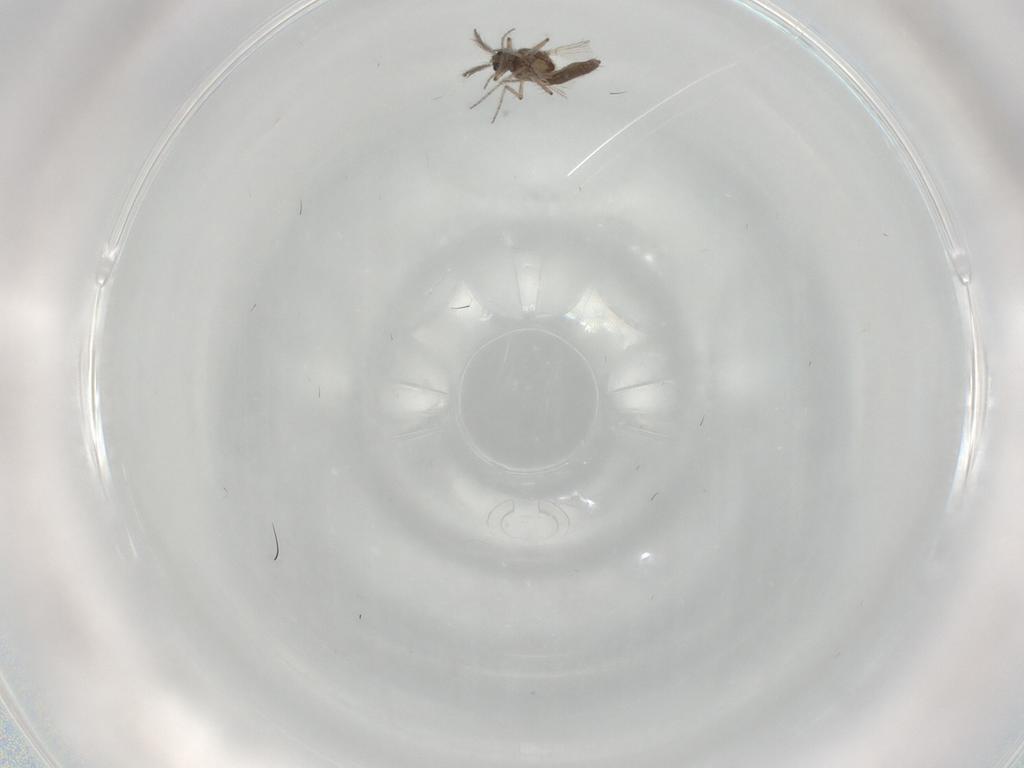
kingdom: Animalia
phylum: Arthropoda
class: Insecta
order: Diptera
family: Ceratopogonidae
